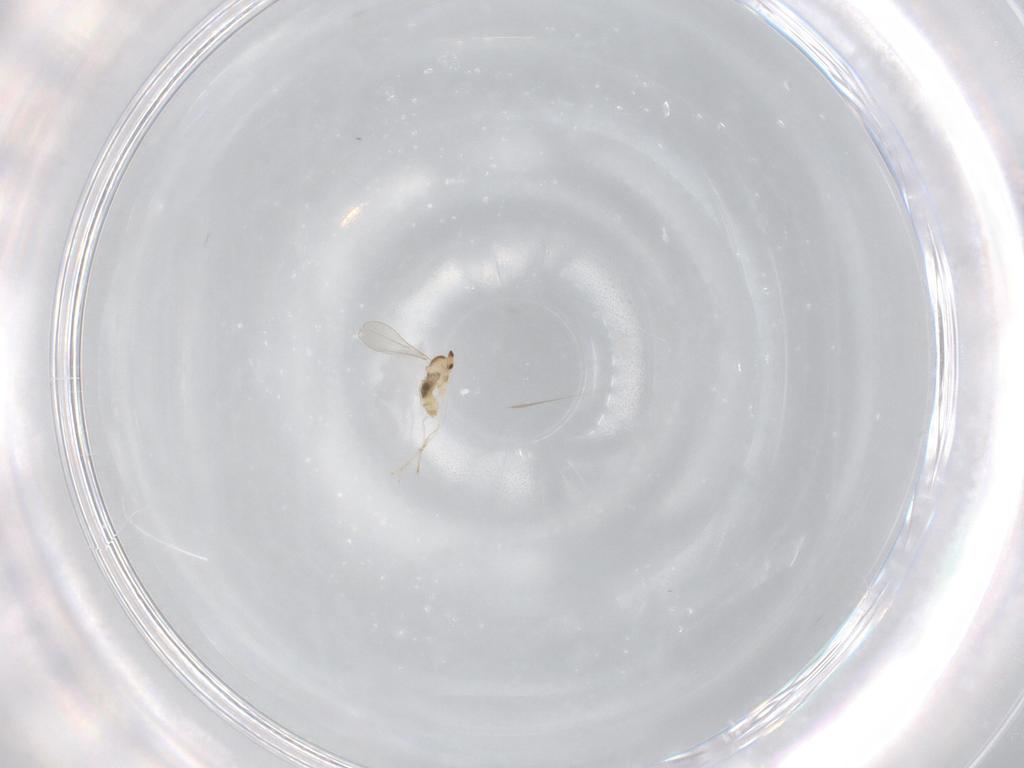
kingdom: Animalia
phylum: Arthropoda
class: Insecta
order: Diptera
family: Cecidomyiidae
